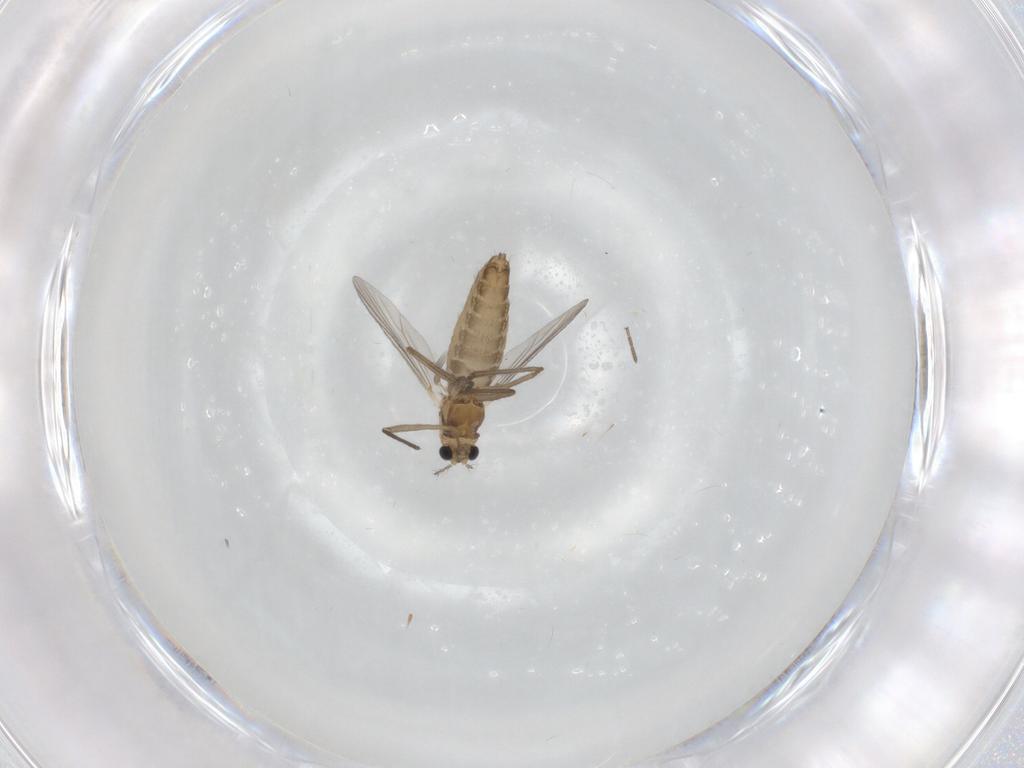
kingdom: Animalia
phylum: Arthropoda
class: Insecta
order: Diptera
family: Chironomidae
